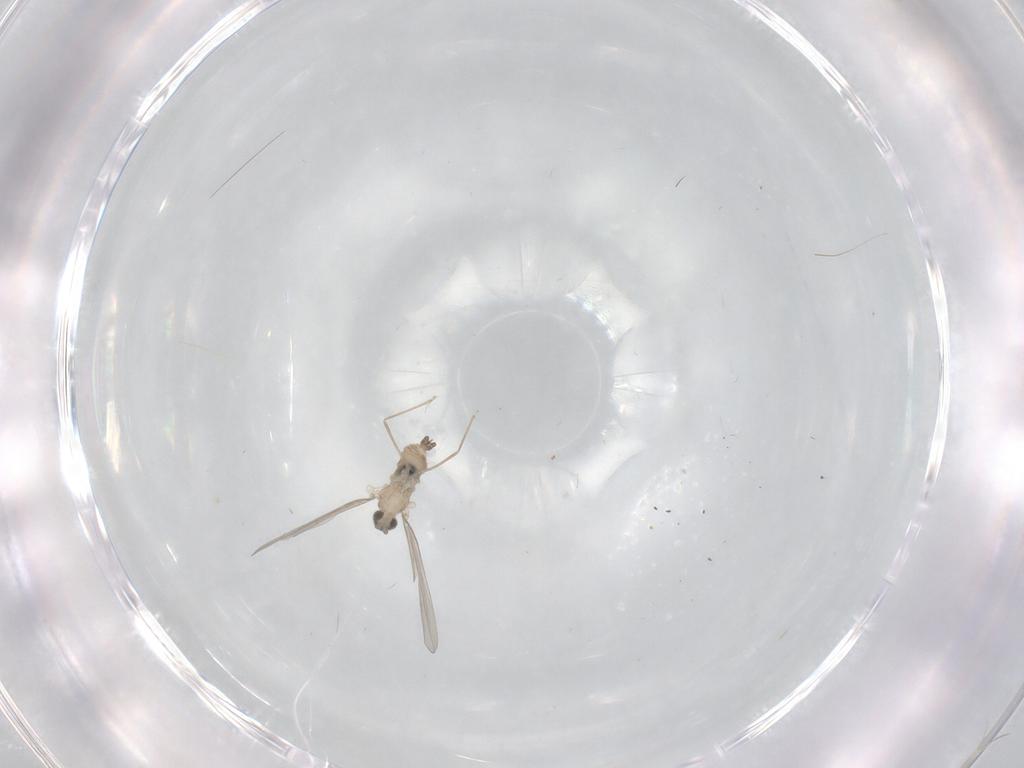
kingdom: Animalia
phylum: Arthropoda
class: Insecta
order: Diptera
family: Cecidomyiidae
